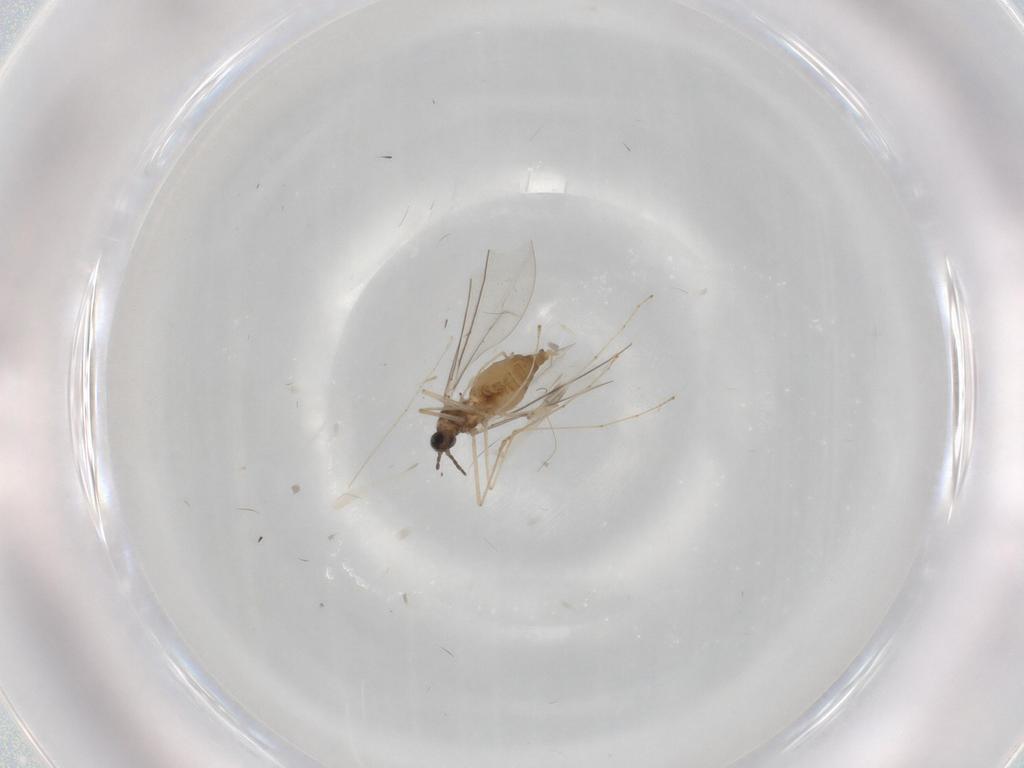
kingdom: Animalia
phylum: Arthropoda
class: Insecta
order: Diptera
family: Cecidomyiidae
